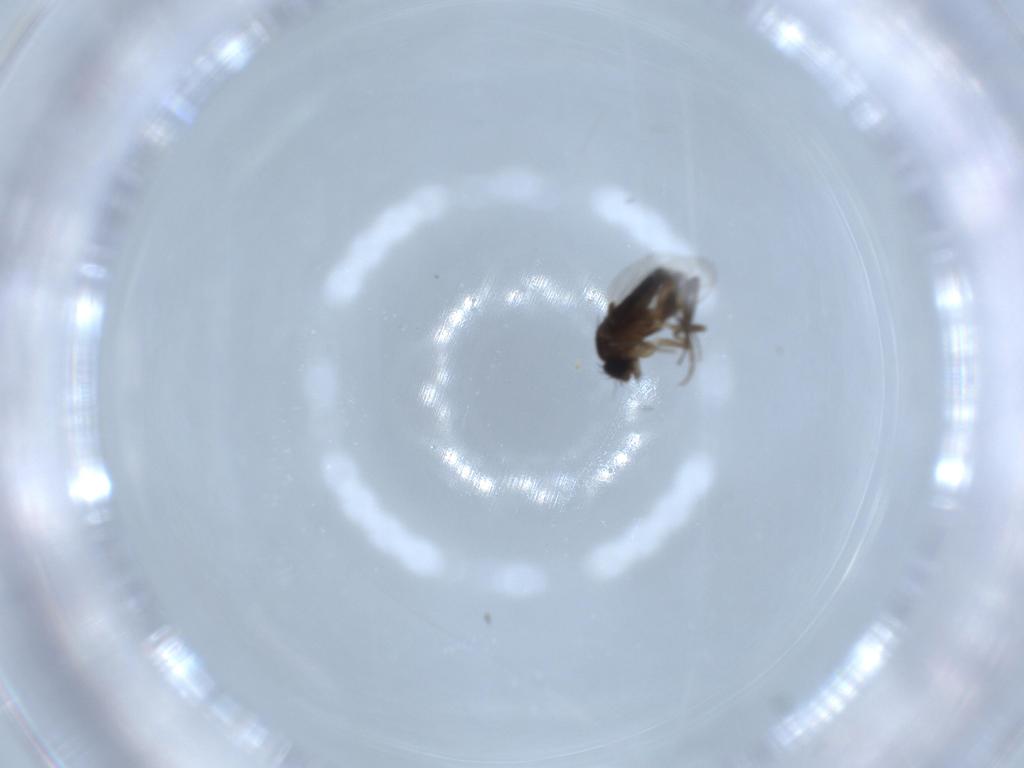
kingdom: Animalia
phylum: Arthropoda
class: Insecta
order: Diptera
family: Phoridae
